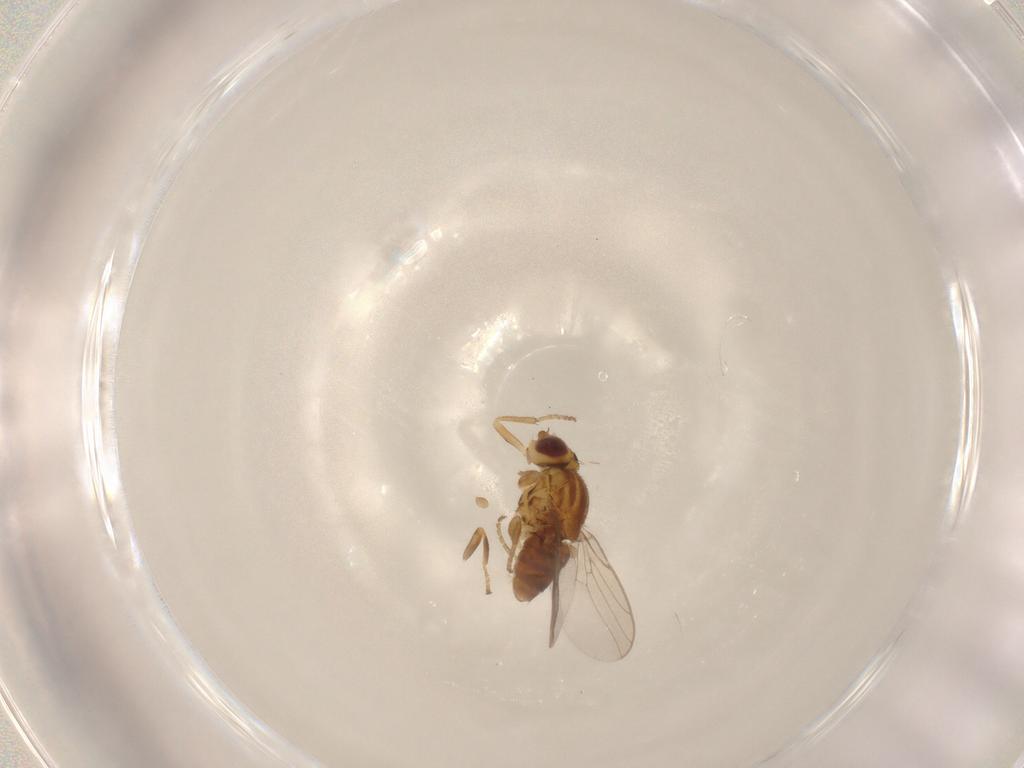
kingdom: Animalia
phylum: Arthropoda
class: Insecta
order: Diptera
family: Chloropidae
